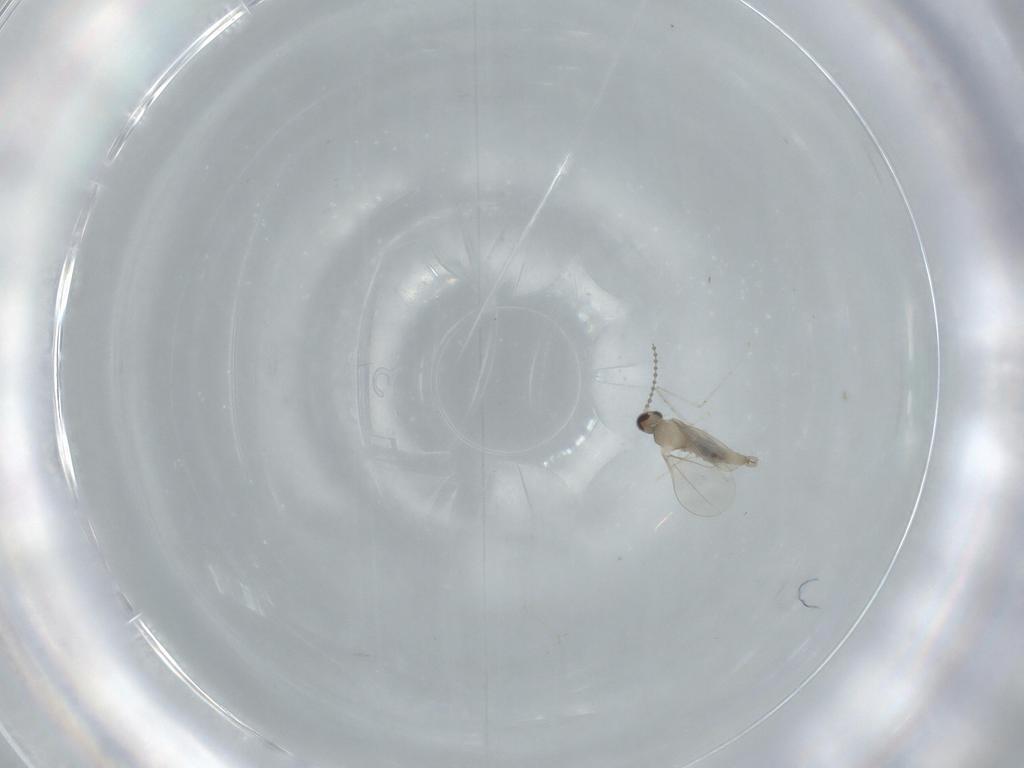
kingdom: Animalia
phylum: Arthropoda
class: Insecta
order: Diptera
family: Cecidomyiidae
